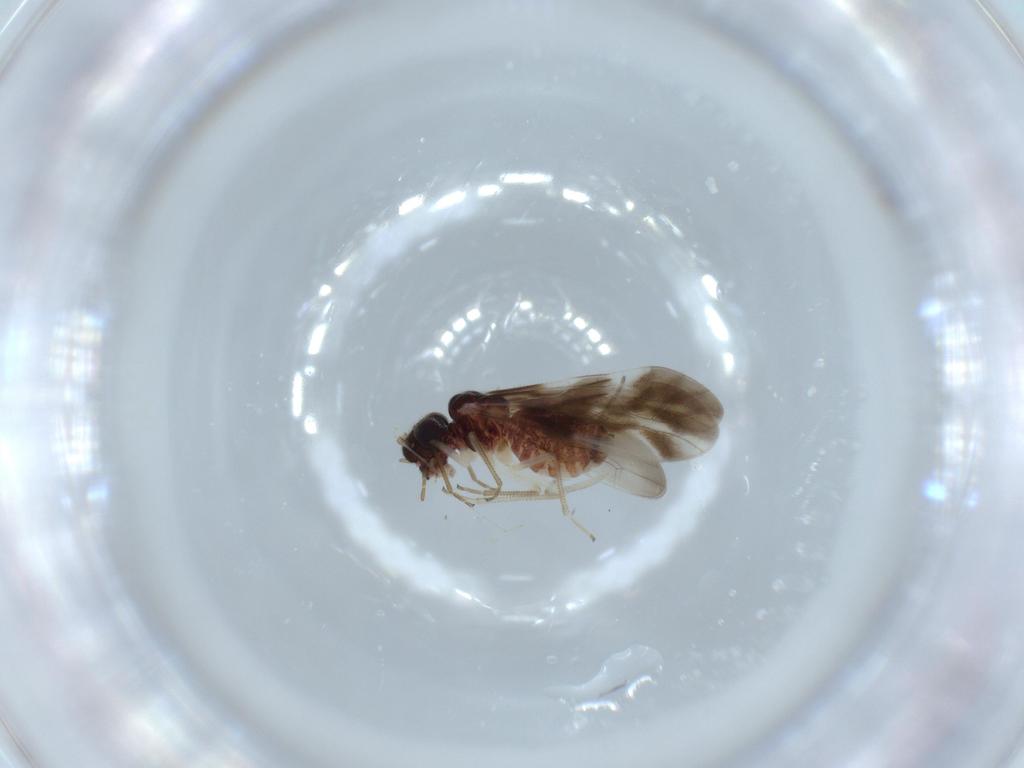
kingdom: Animalia
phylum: Arthropoda
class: Insecta
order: Psocodea
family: Caeciliusidae
